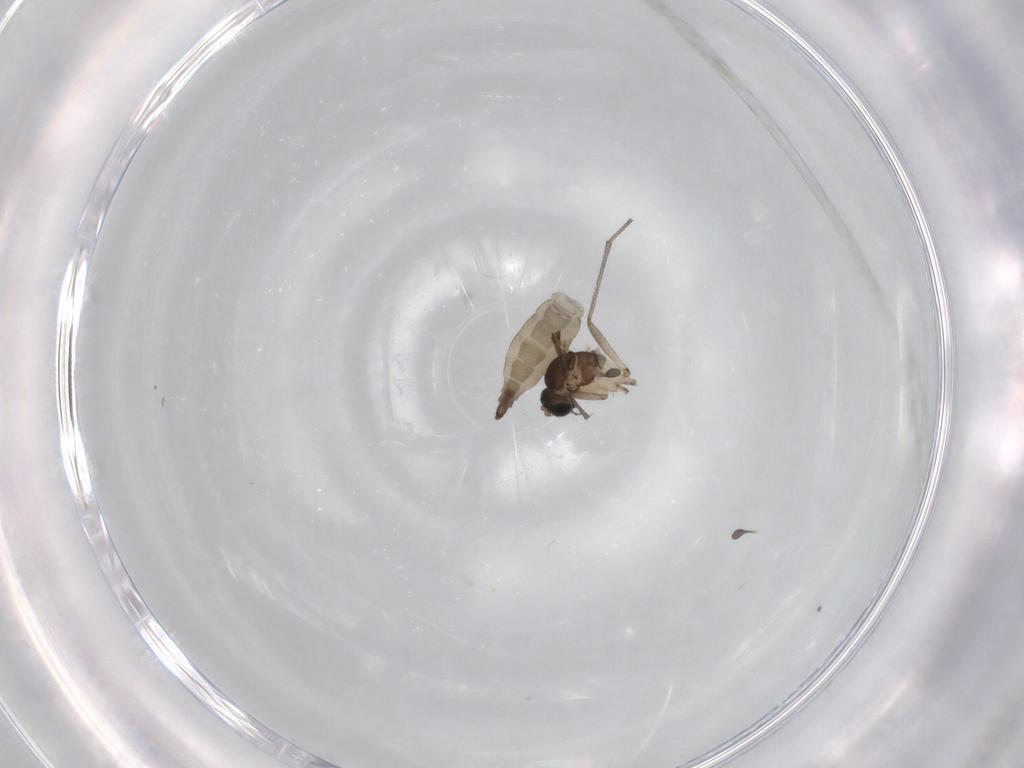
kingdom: Animalia
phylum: Arthropoda
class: Insecta
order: Diptera
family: Sciaridae
